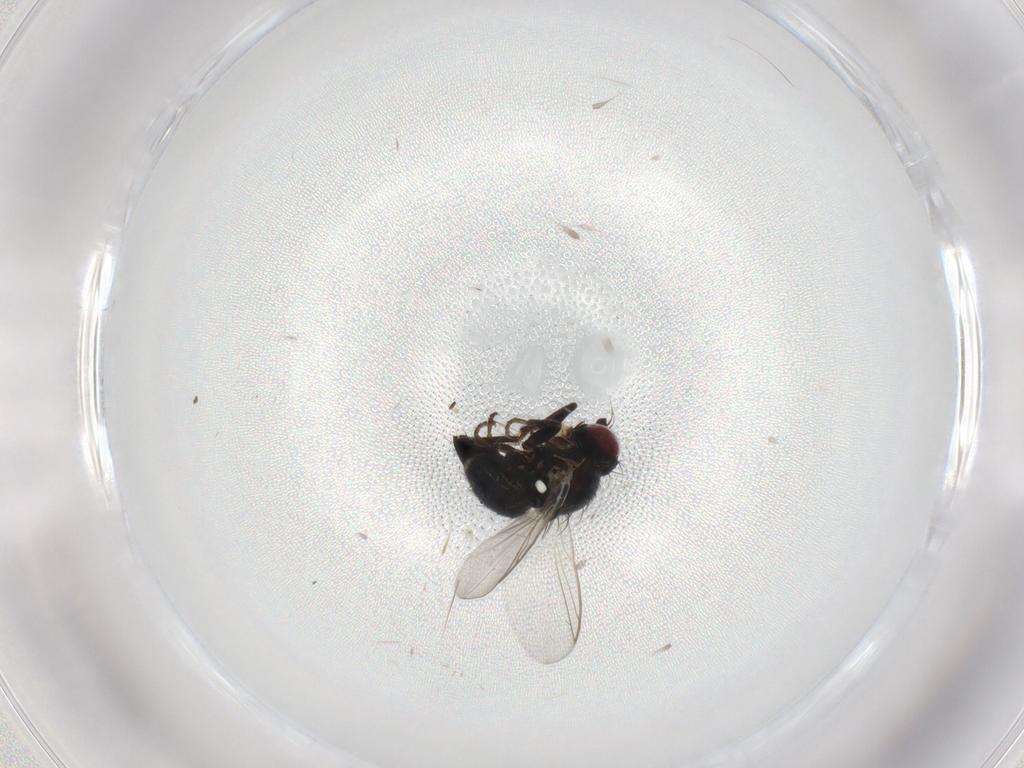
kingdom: Animalia
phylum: Arthropoda
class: Insecta
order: Diptera
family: Agromyzidae
